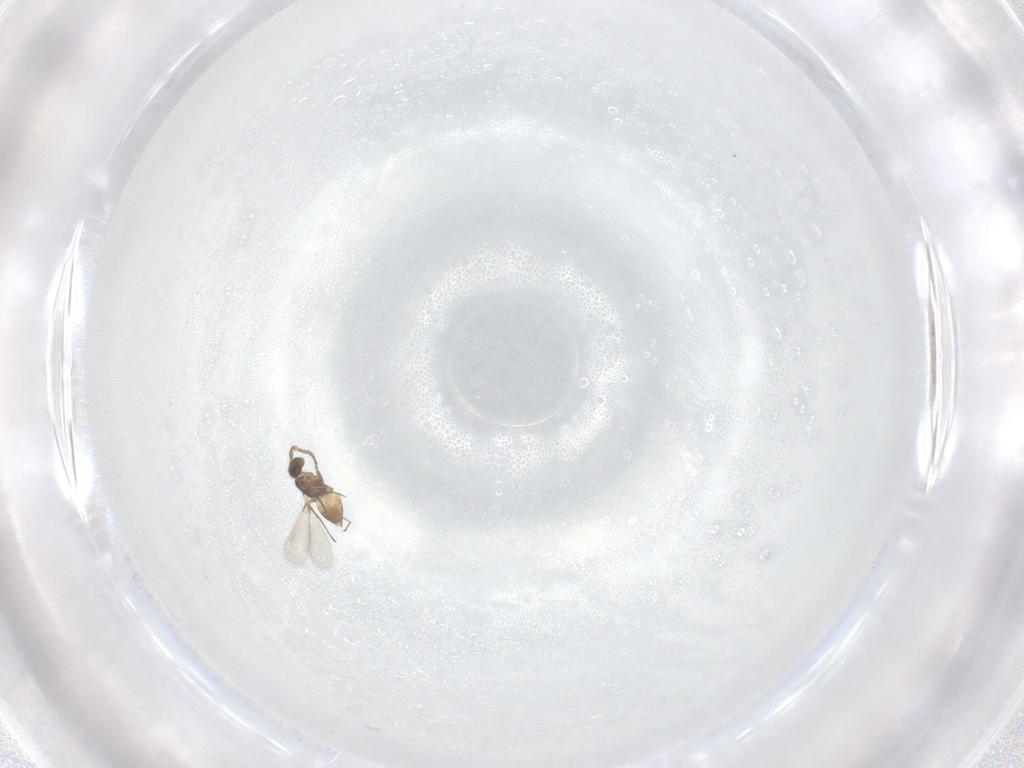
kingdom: Animalia
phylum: Arthropoda
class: Insecta
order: Hymenoptera
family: Mymaridae
